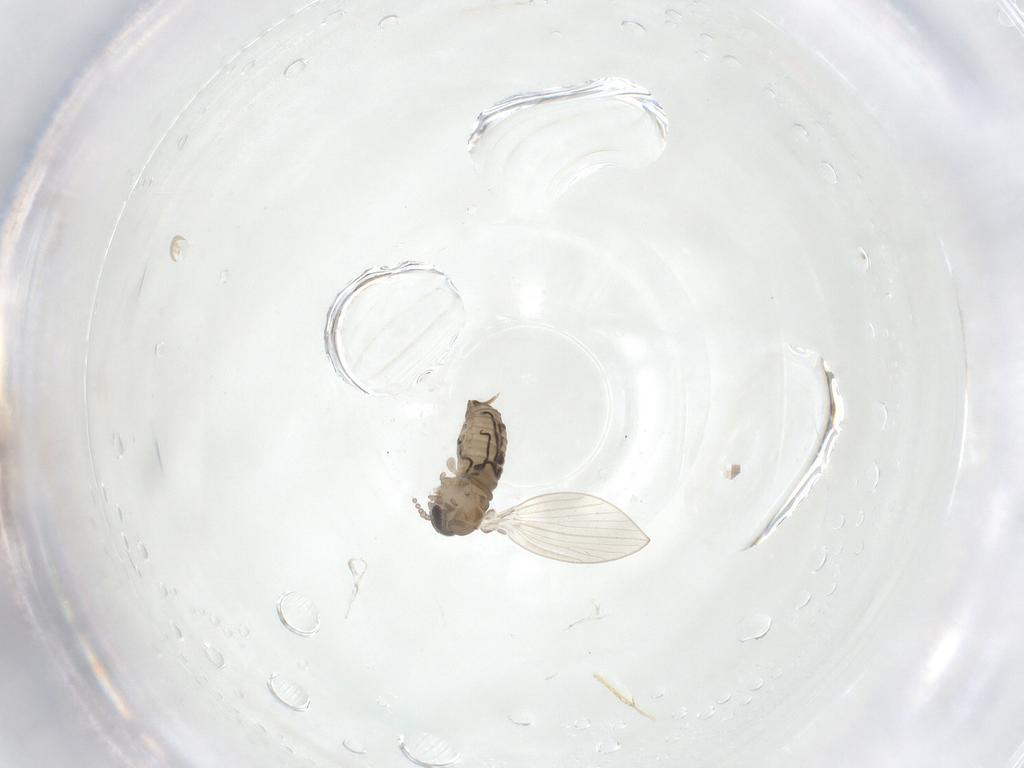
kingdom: Animalia
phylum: Arthropoda
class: Insecta
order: Diptera
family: Psychodidae
